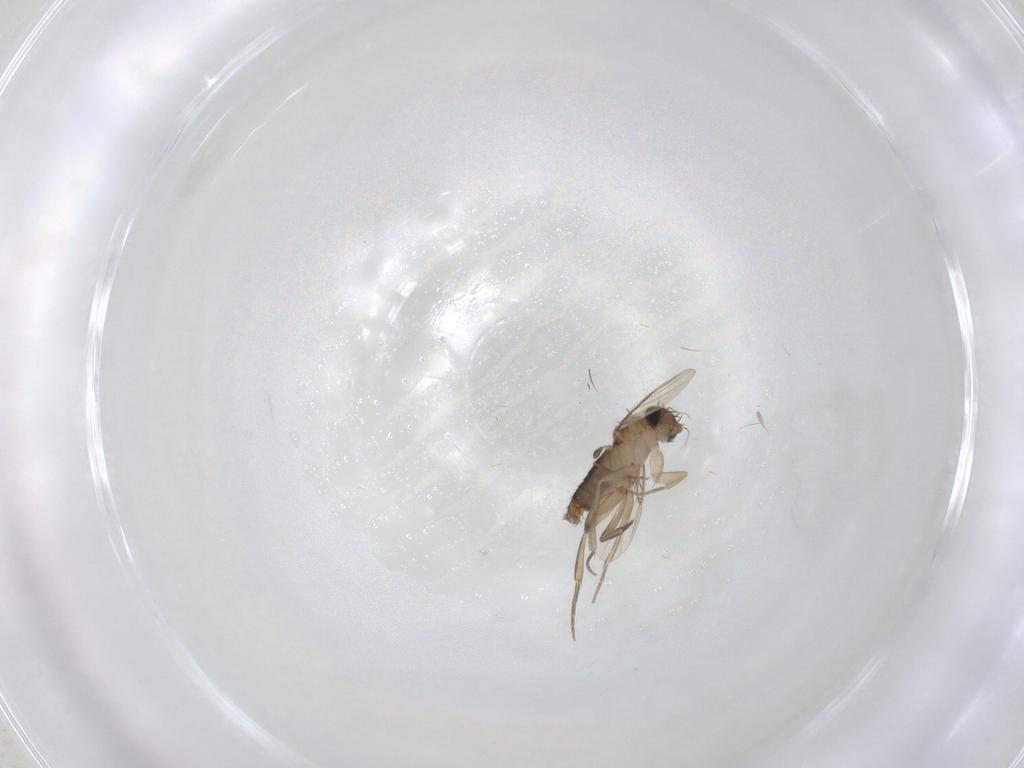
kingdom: Animalia
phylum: Arthropoda
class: Insecta
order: Diptera
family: Phoridae
